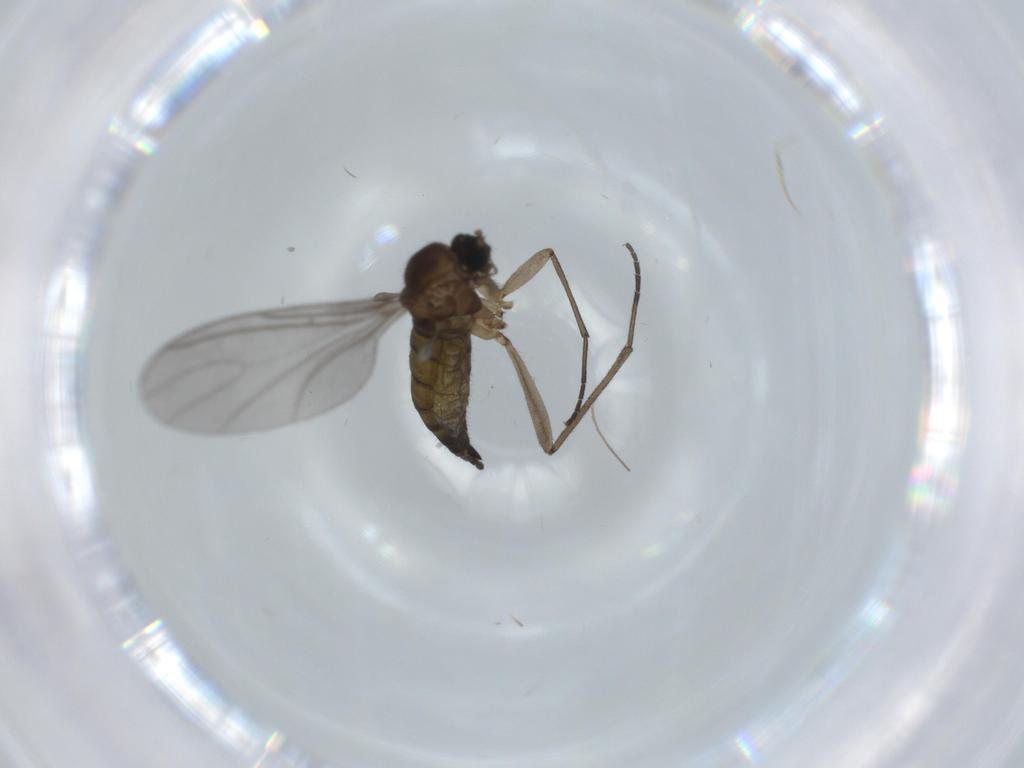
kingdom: Animalia
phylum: Arthropoda
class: Insecta
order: Diptera
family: Sciaridae
